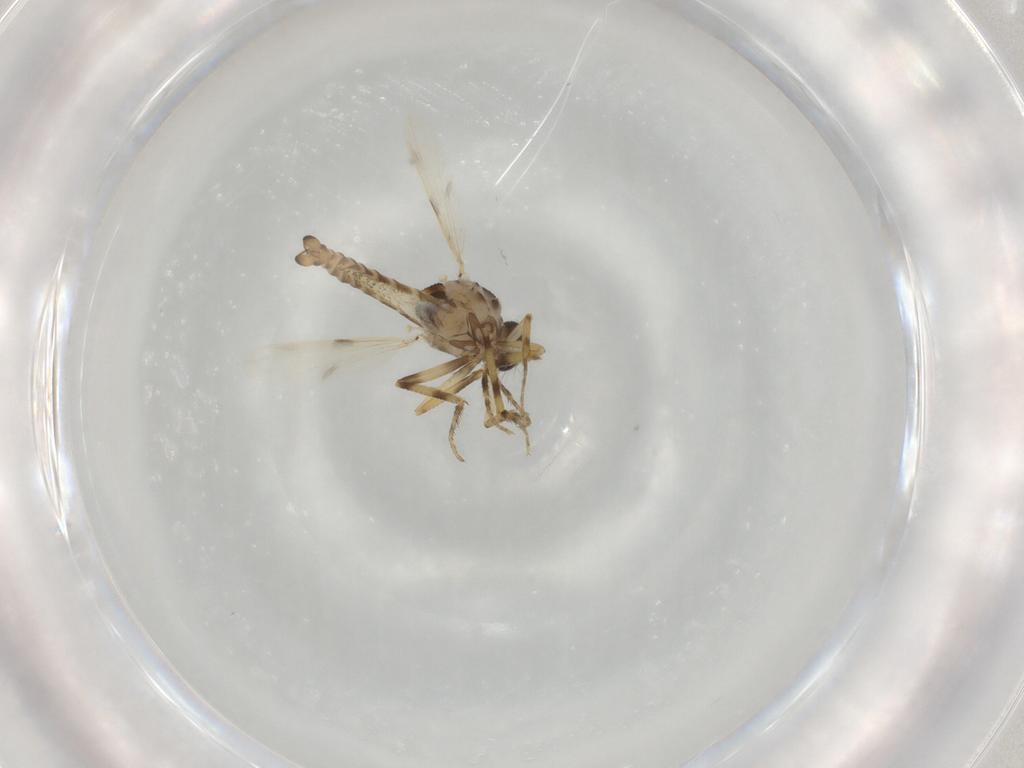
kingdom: Animalia
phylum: Arthropoda
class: Insecta
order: Diptera
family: Ceratopogonidae
